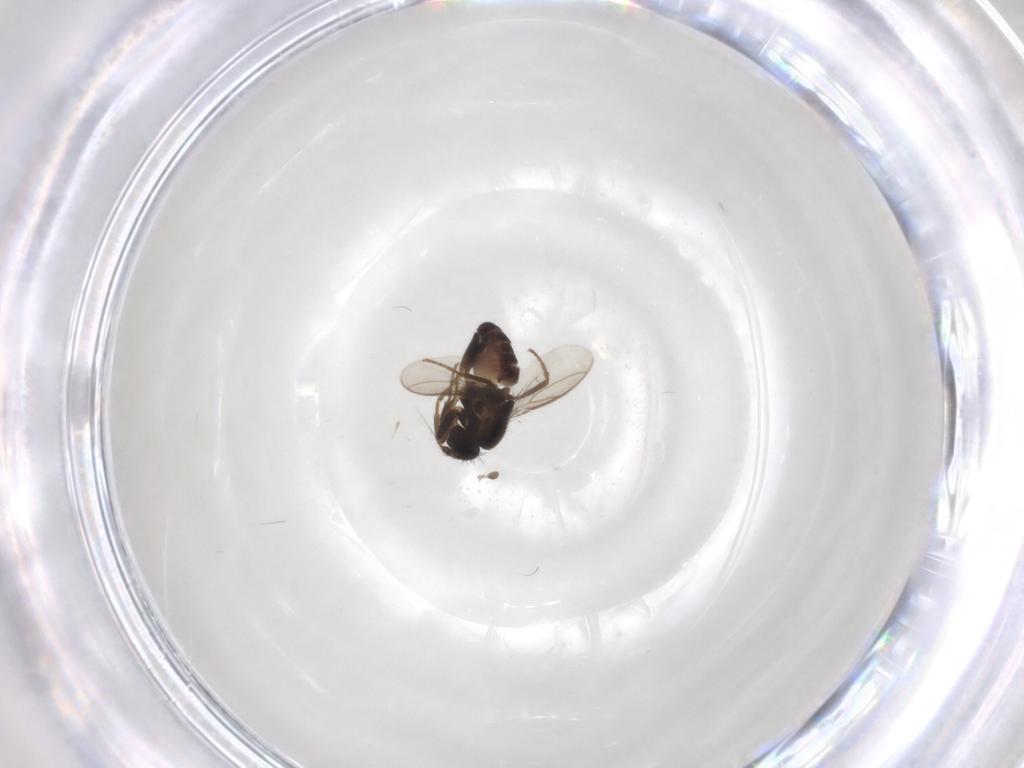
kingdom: Animalia
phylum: Arthropoda
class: Insecta
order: Diptera
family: Sphaeroceridae
